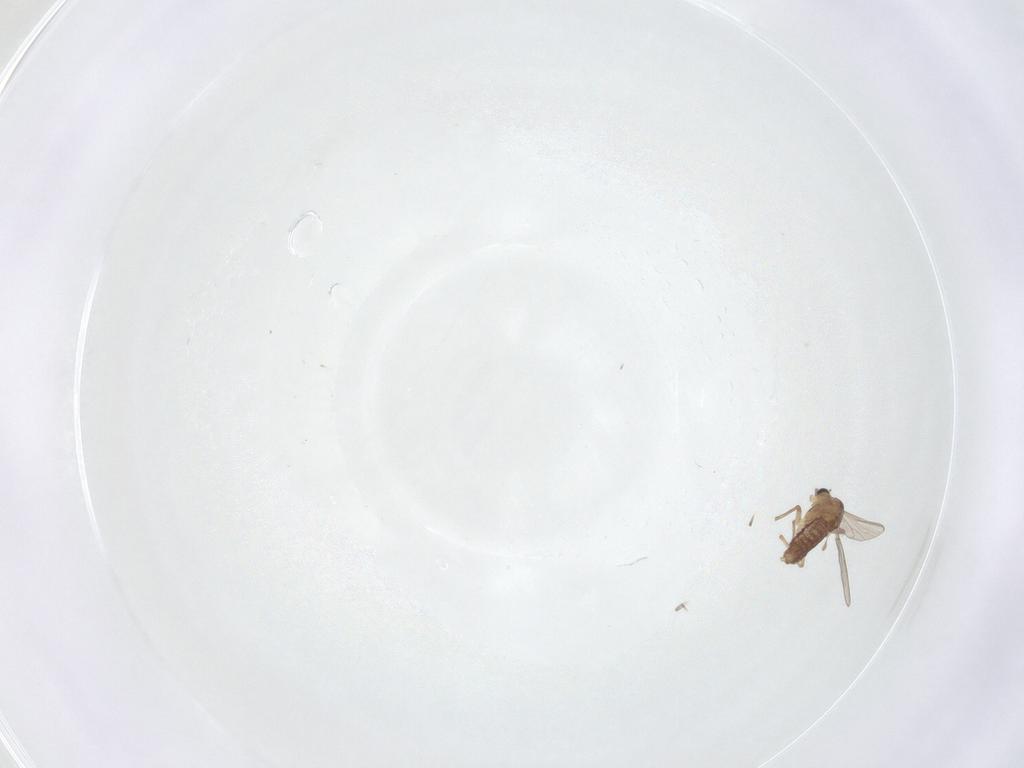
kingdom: Animalia
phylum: Arthropoda
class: Insecta
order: Diptera
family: Chironomidae
